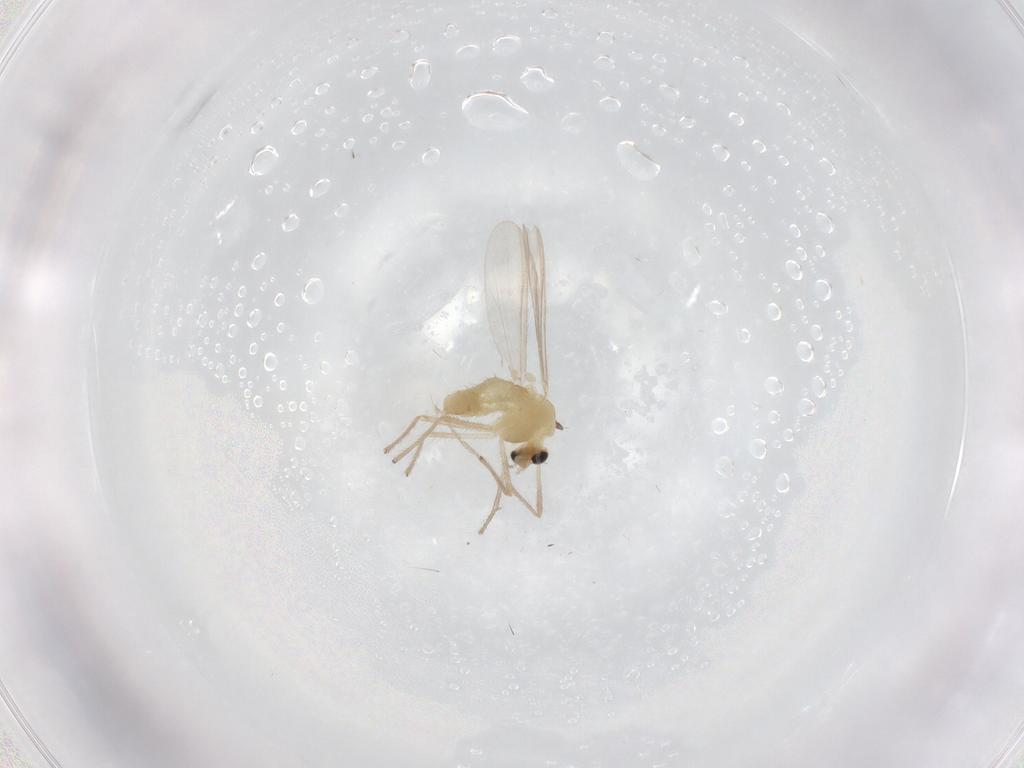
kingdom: Animalia
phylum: Arthropoda
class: Insecta
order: Diptera
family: Chironomidae
